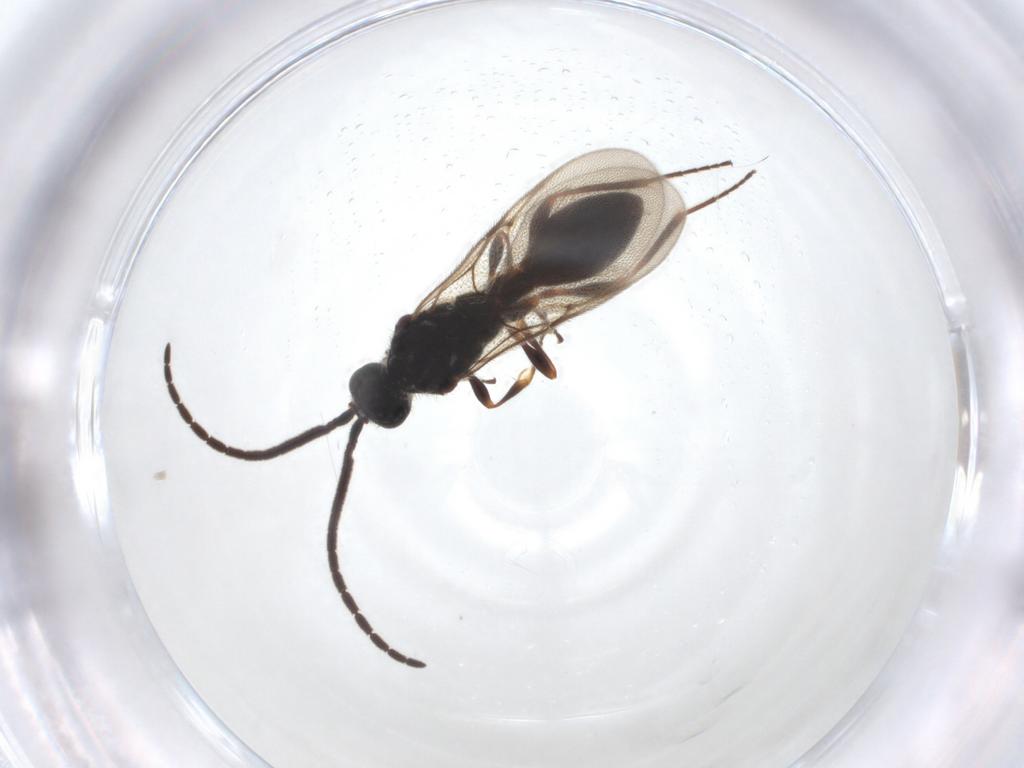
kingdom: Animalia
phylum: Arthropoda
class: Insecta
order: Hymenoptera
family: Diapriidae
